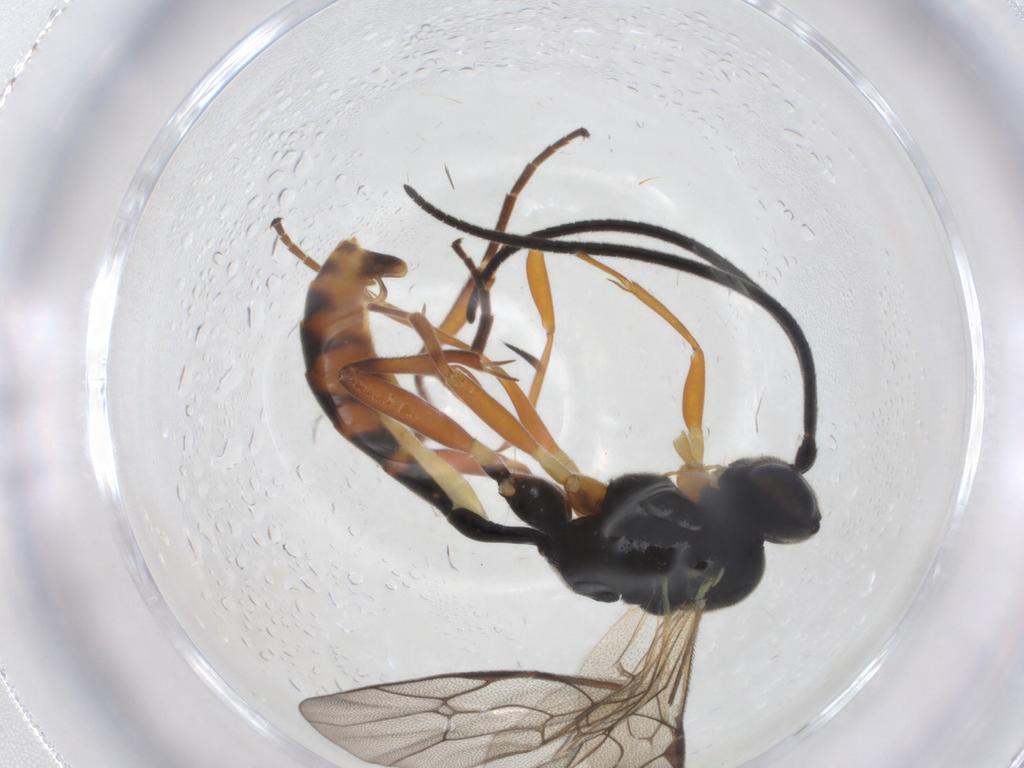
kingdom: Animalia
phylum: Arthropoda
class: Insecta
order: Hymenoptera
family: Ichneumonidae
